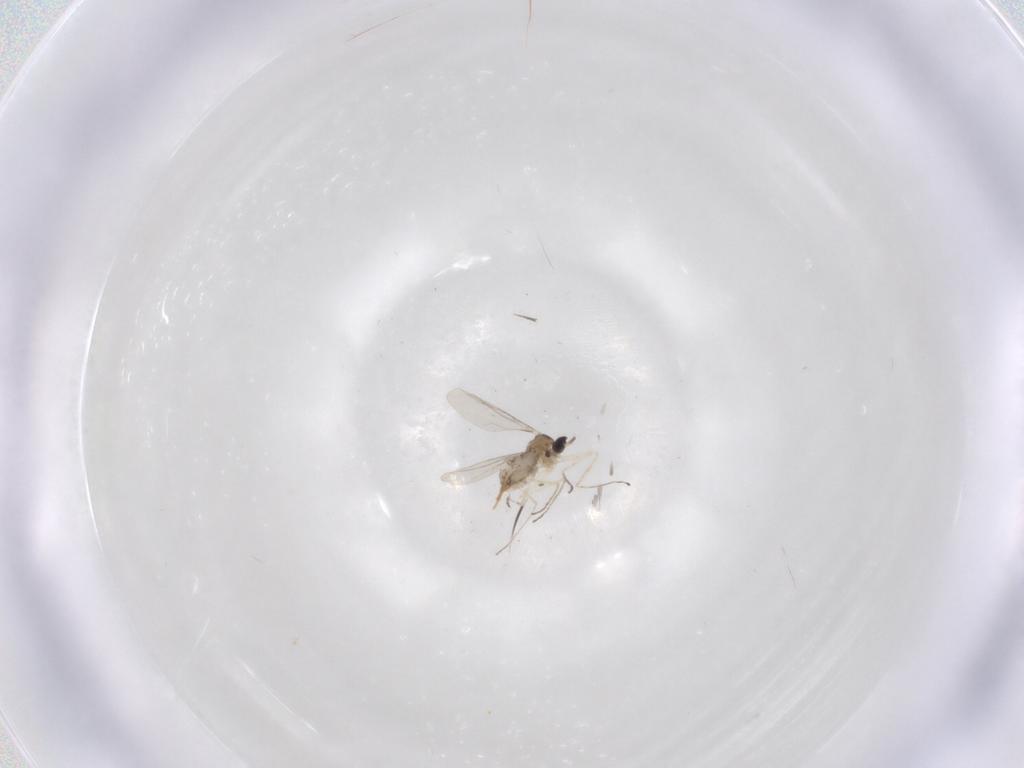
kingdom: Animalia
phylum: Arthropoda
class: Insecta
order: Diptera
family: Cecidomyiidae
